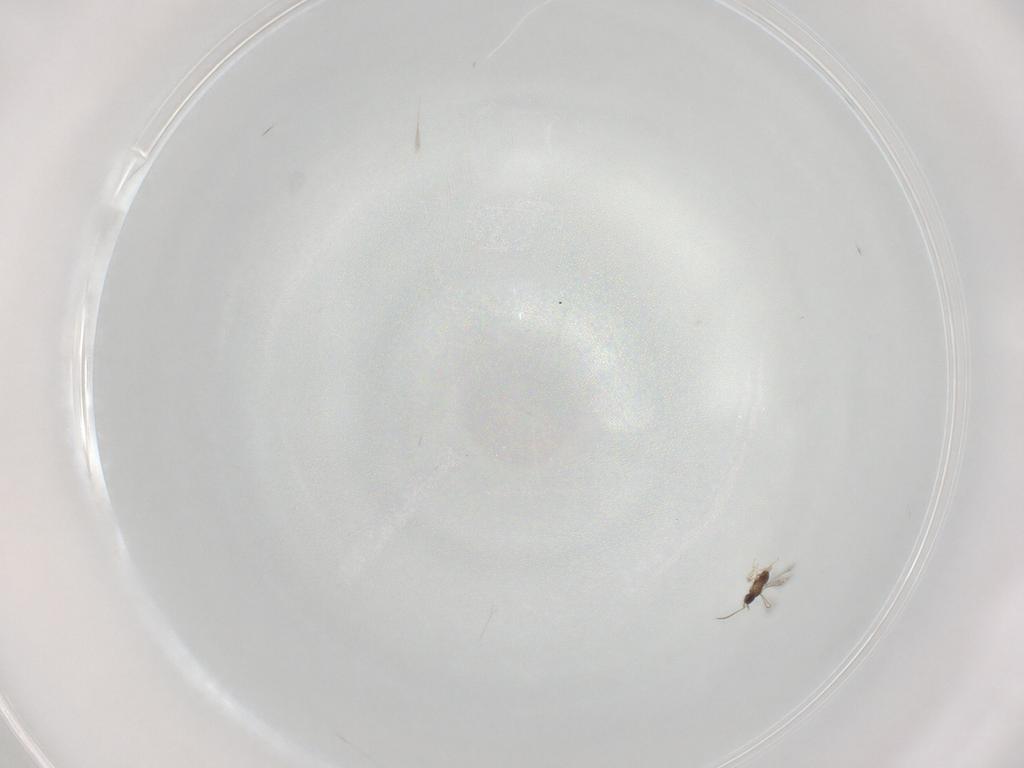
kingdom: Animalia
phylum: Arthropoda
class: Insecta
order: Hymenoptera
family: Mymaridae
